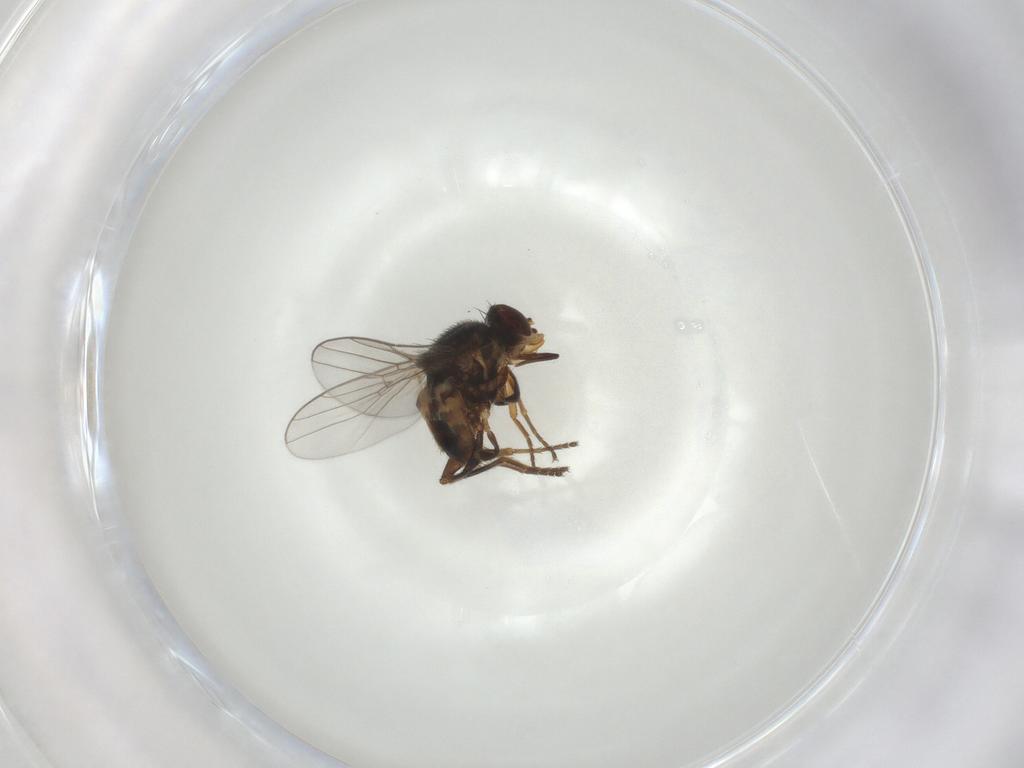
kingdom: Animalia
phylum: Arthropoda
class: Insecta
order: Diptera
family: Chloropidae
